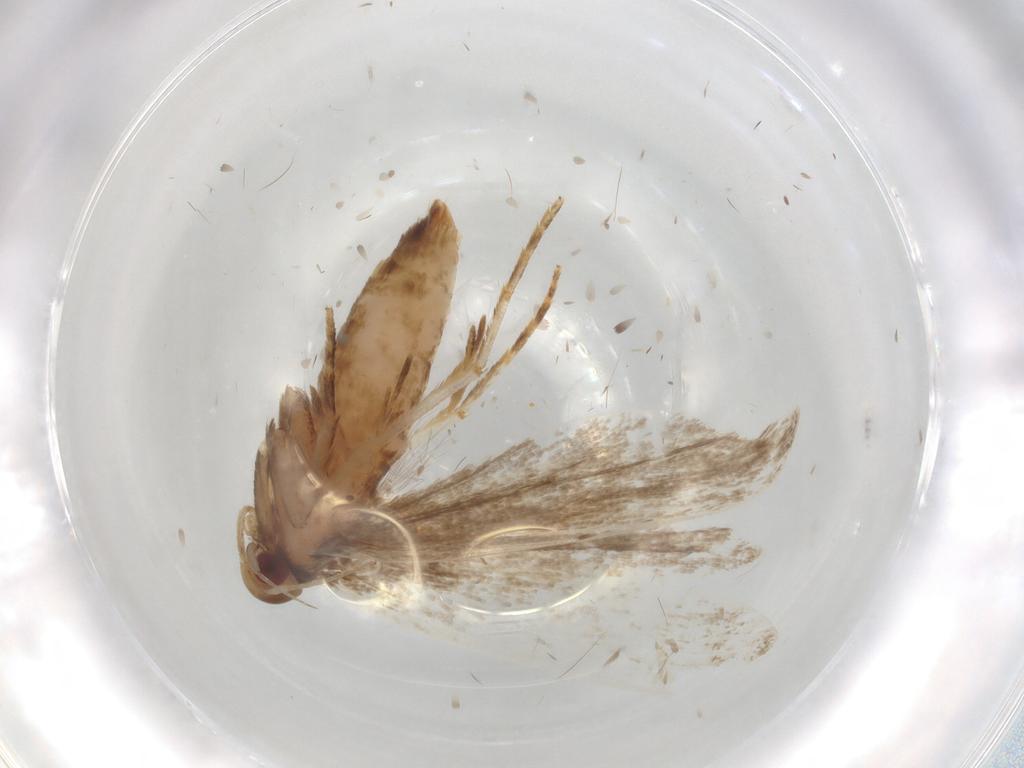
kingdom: Animalia
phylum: Arthropoda
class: Insecta
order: Lepidoptera
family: Gelechiidae
